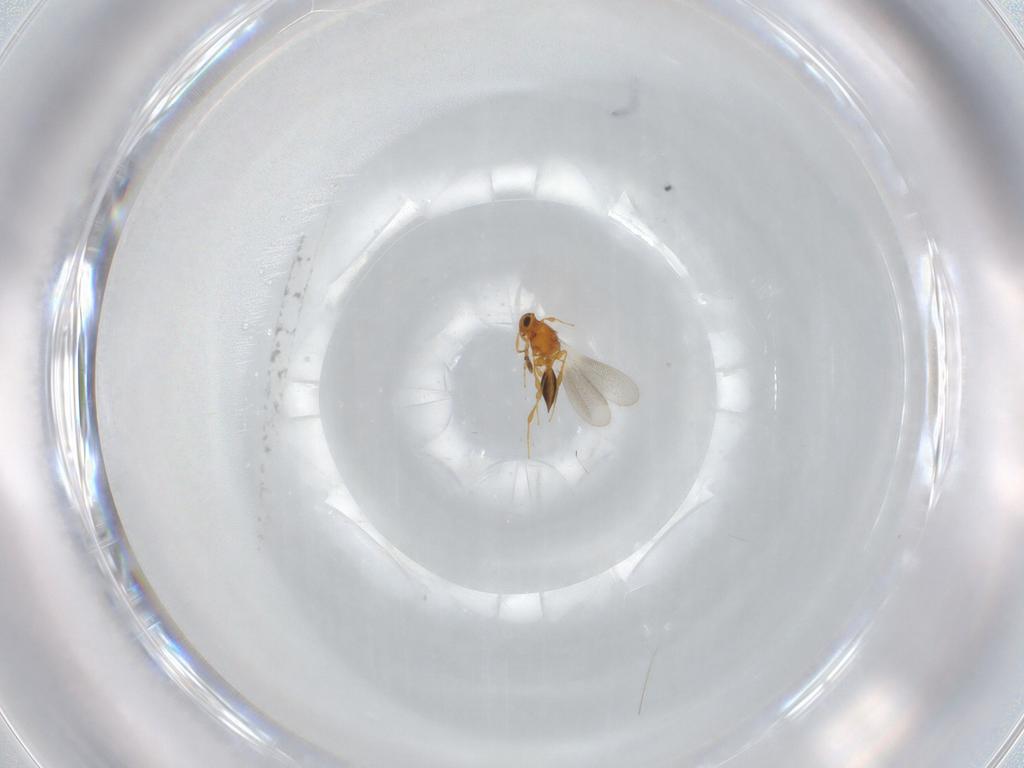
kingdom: Animalia
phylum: Arthropoda
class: Insecta
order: Hymenoptera
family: Platygastridae
